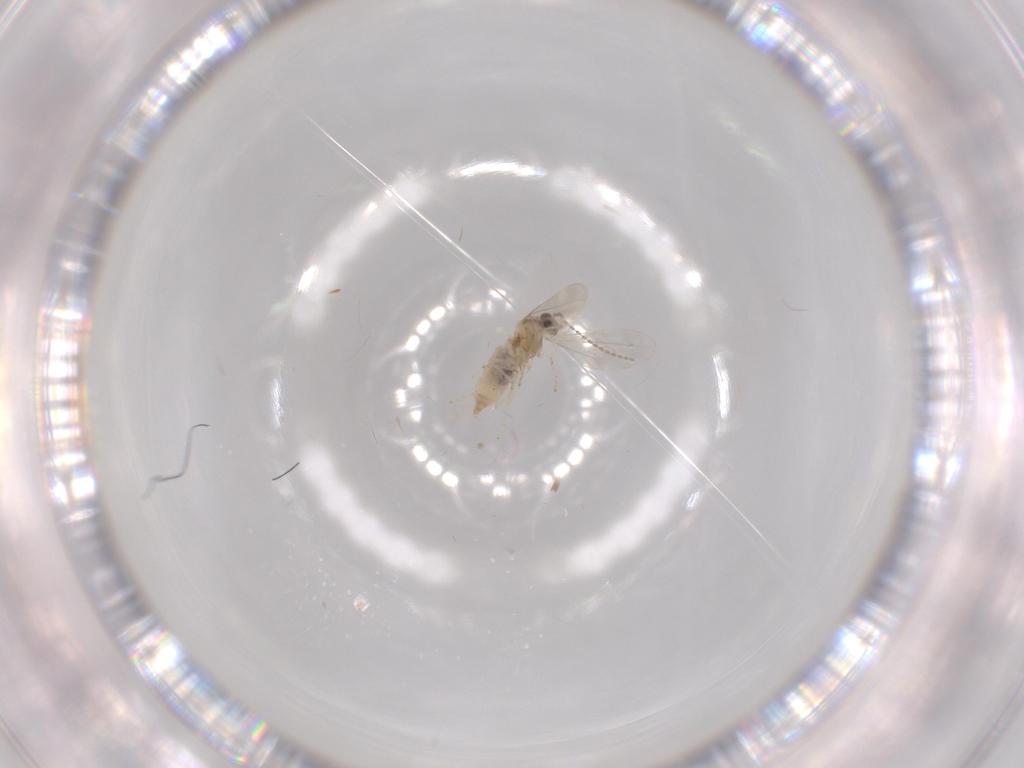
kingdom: Animalia
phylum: Arthropoda
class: Insecta
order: Diptera
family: Cecidomyiidae
